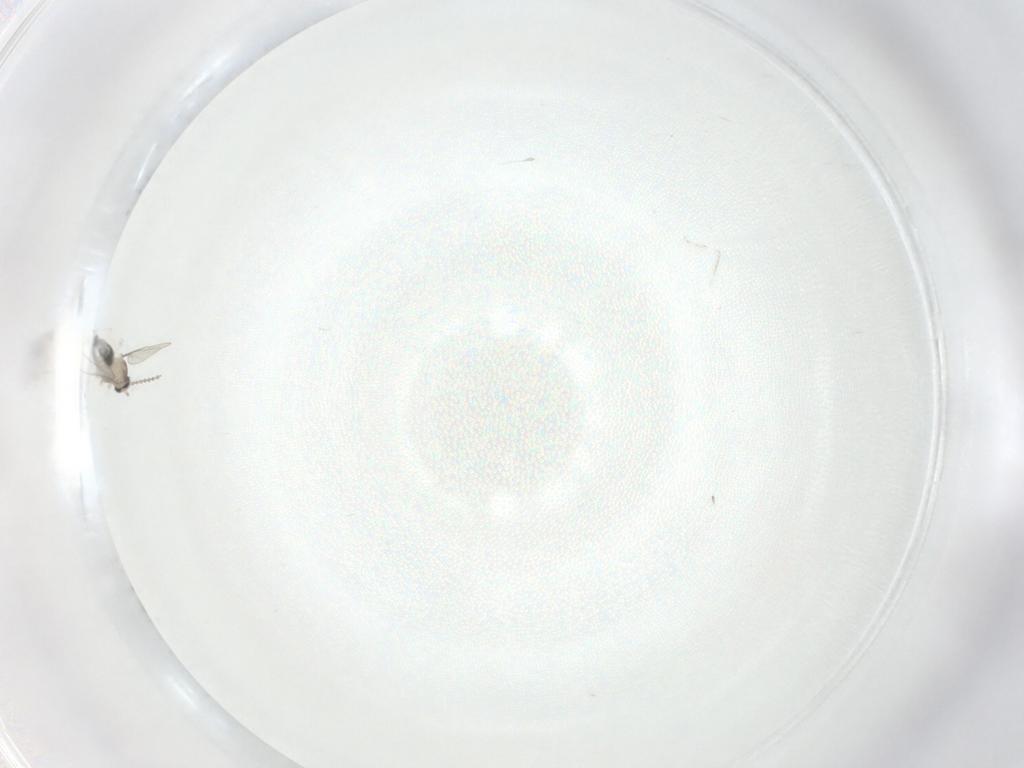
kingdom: Animalia
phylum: Arthropoda
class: Insecta
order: Diptera
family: Cecidomyiidae
